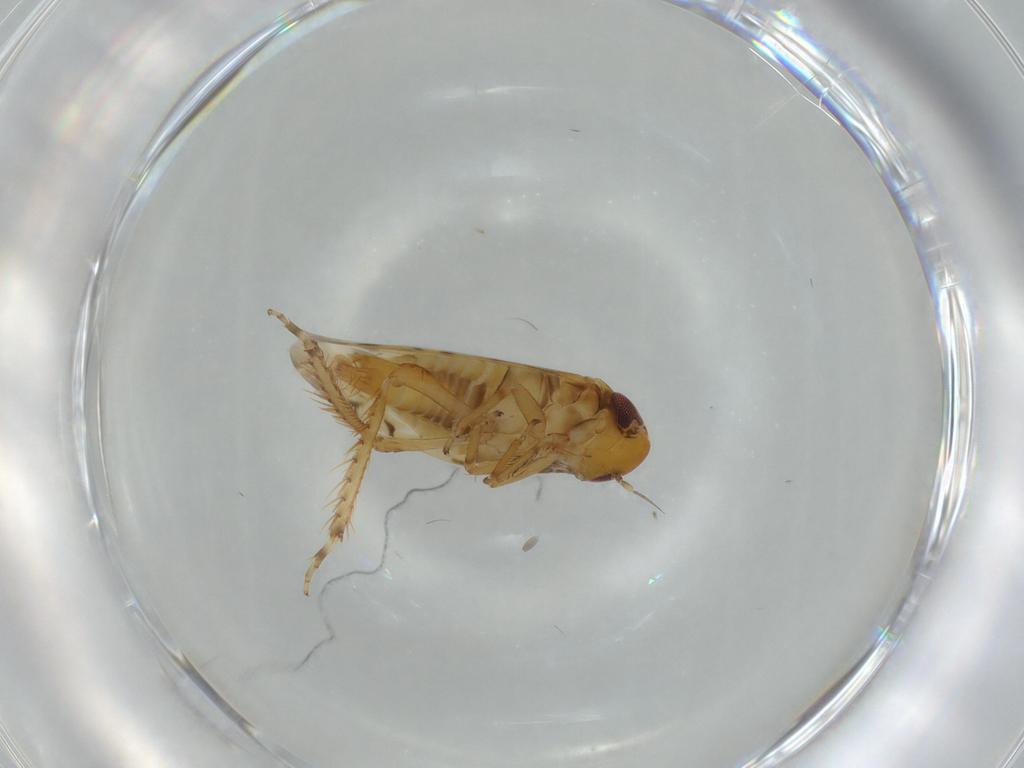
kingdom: Animalia
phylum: Arthropoda
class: Insecta
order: Hemiptera
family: Cicadellidae
